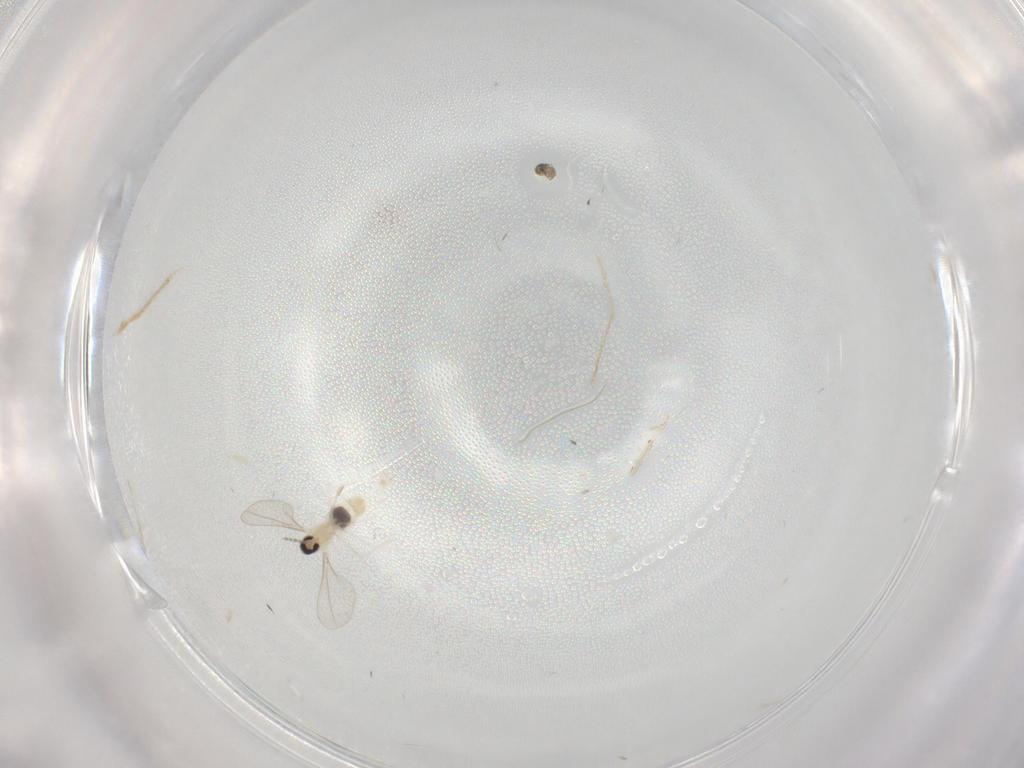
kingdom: Animalia
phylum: Arthropoda
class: Insecta
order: Diptera
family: Cecidomyiidae
